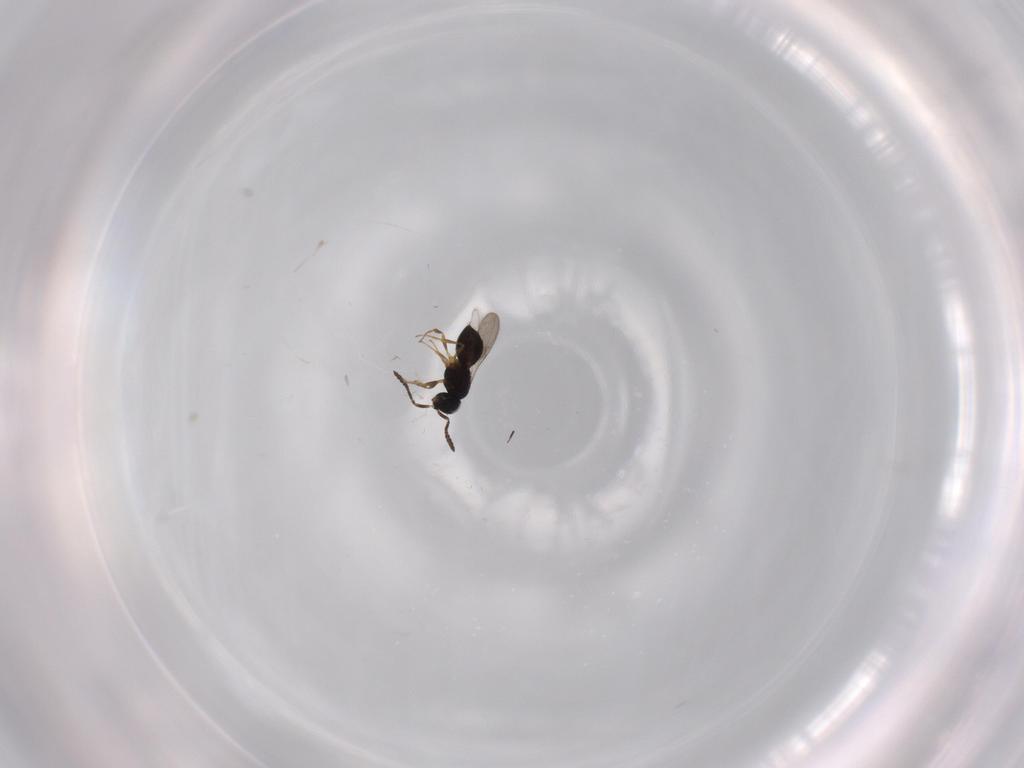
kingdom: Animalia
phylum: Arthropoda
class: Insecta
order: Hymenoptera
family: Scelionidae
